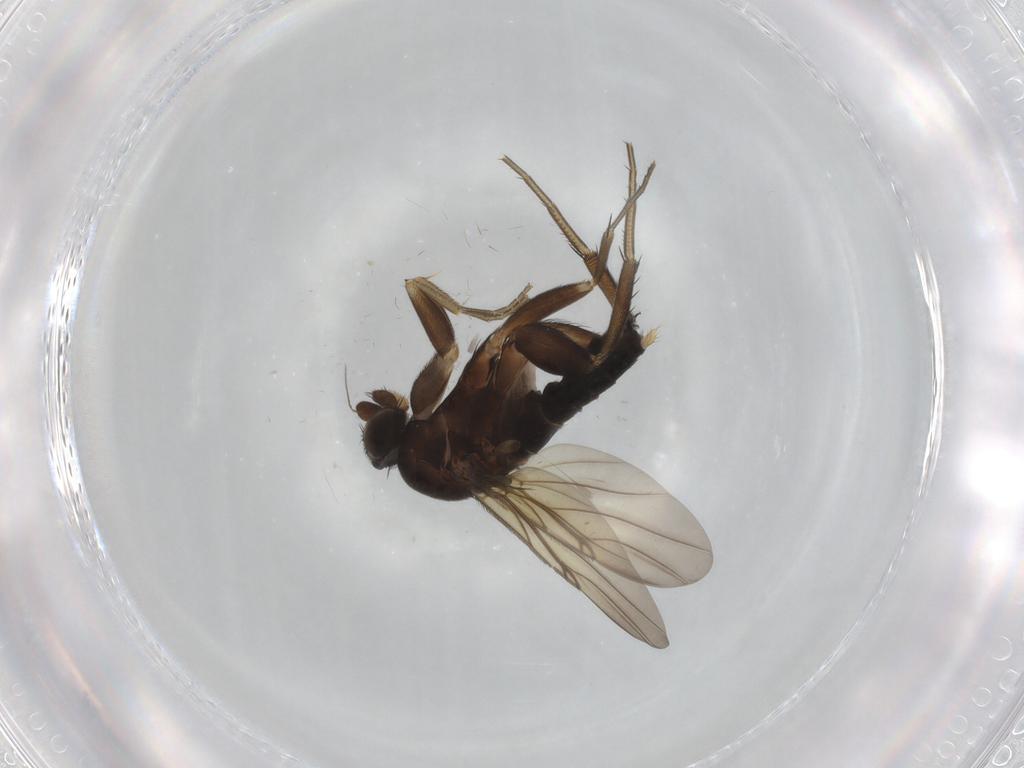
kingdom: Animalia
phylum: Arthropoda
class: Insecta
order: Diptera
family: Phoridae
